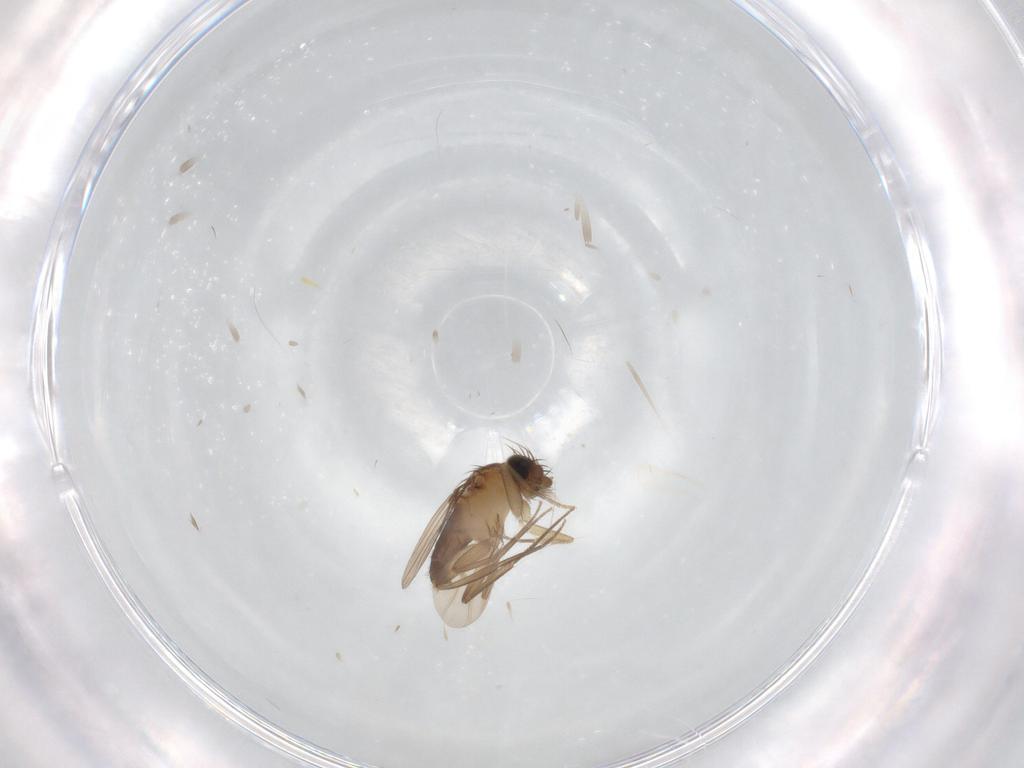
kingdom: Animalia
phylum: Arthropoda
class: Insecta
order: Diptera
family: Phoridae
